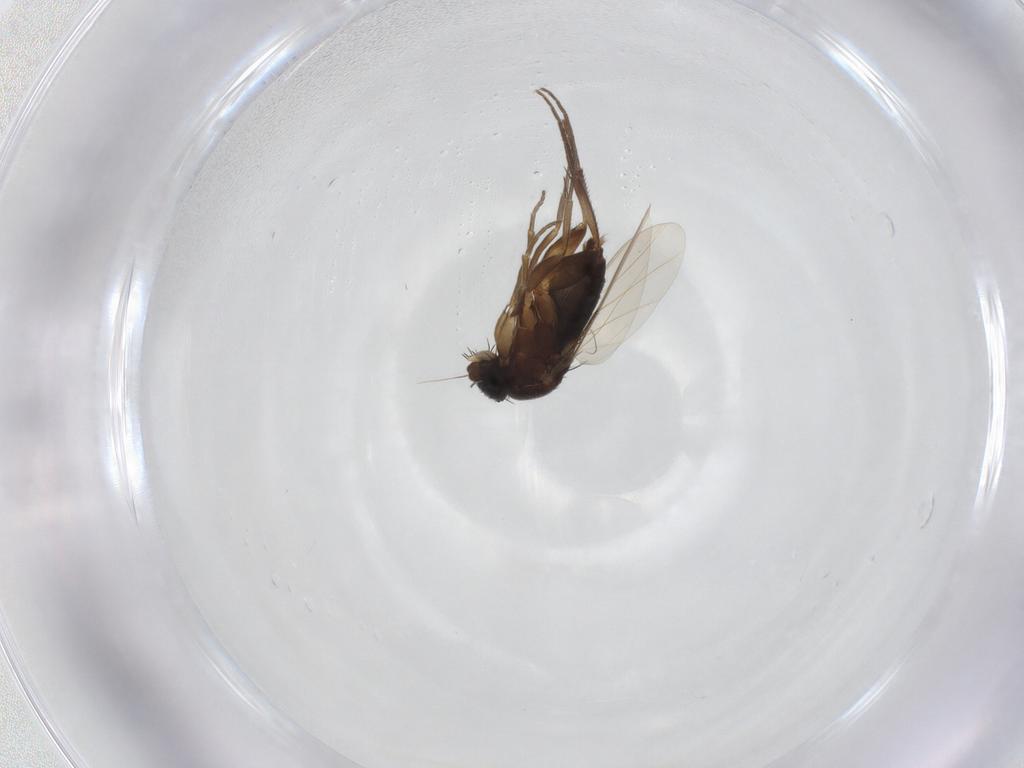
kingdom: Animalia
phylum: Arthropoda
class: Insecta
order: Diptera
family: Phoridae
